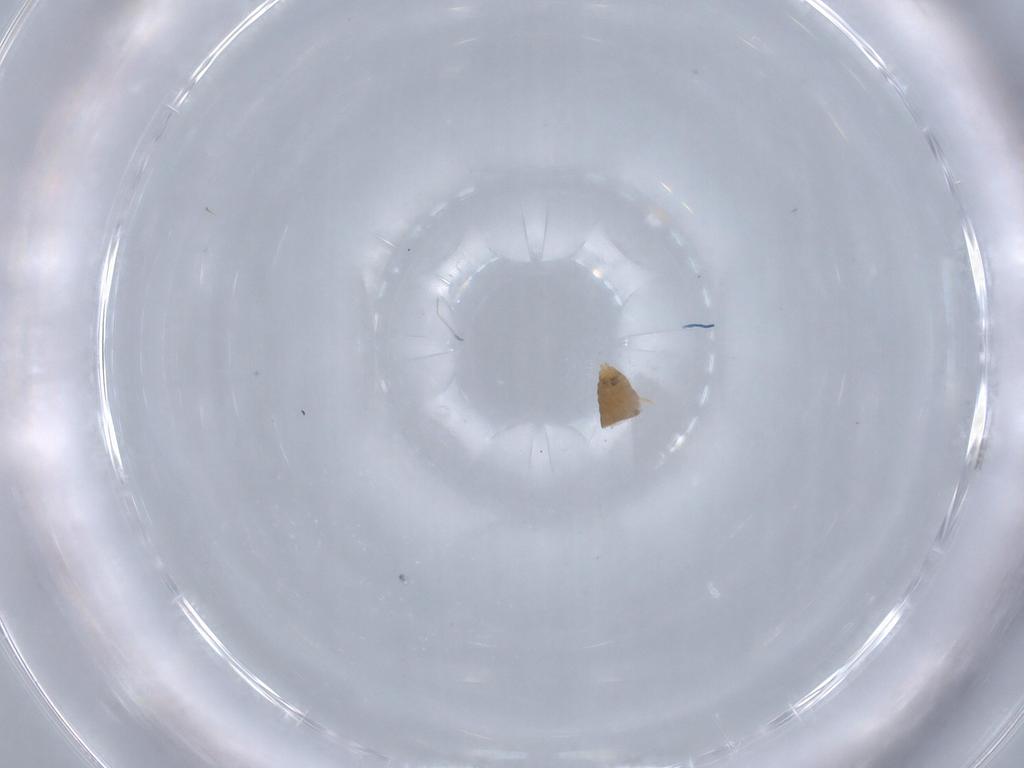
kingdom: Animalia
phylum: Arthropoda
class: Insecta
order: Diptera
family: Ceratopogonidae
